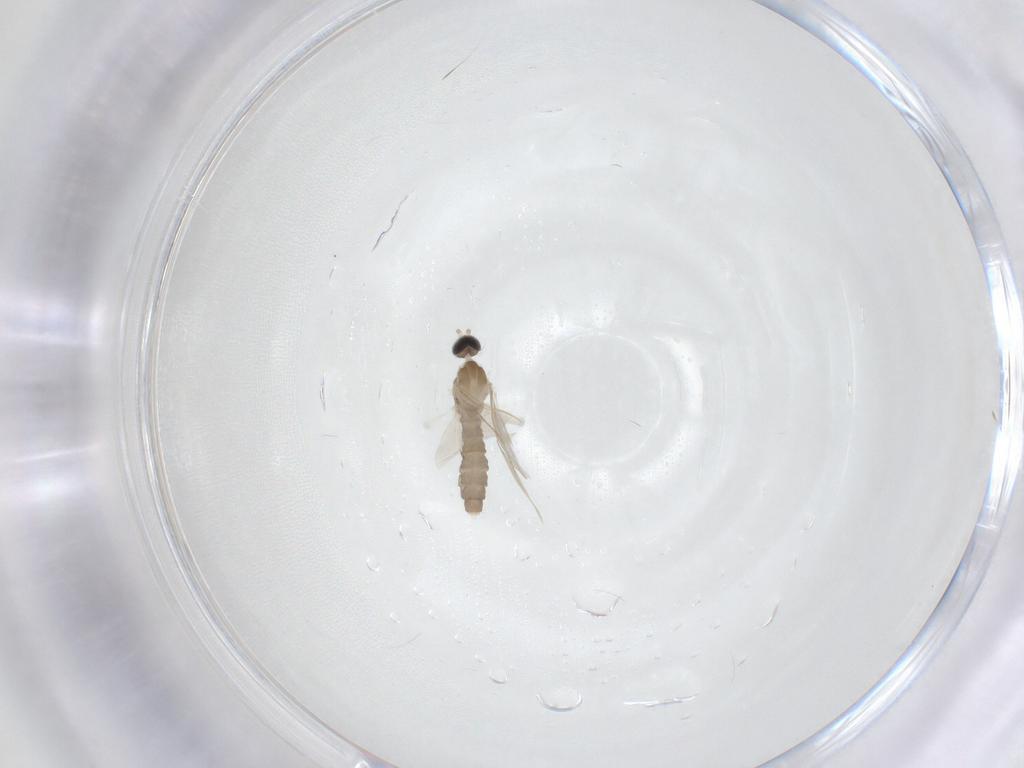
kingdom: Animalia
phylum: Arthropoda
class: Insecta
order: Diptera
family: Cecidomyiidae
